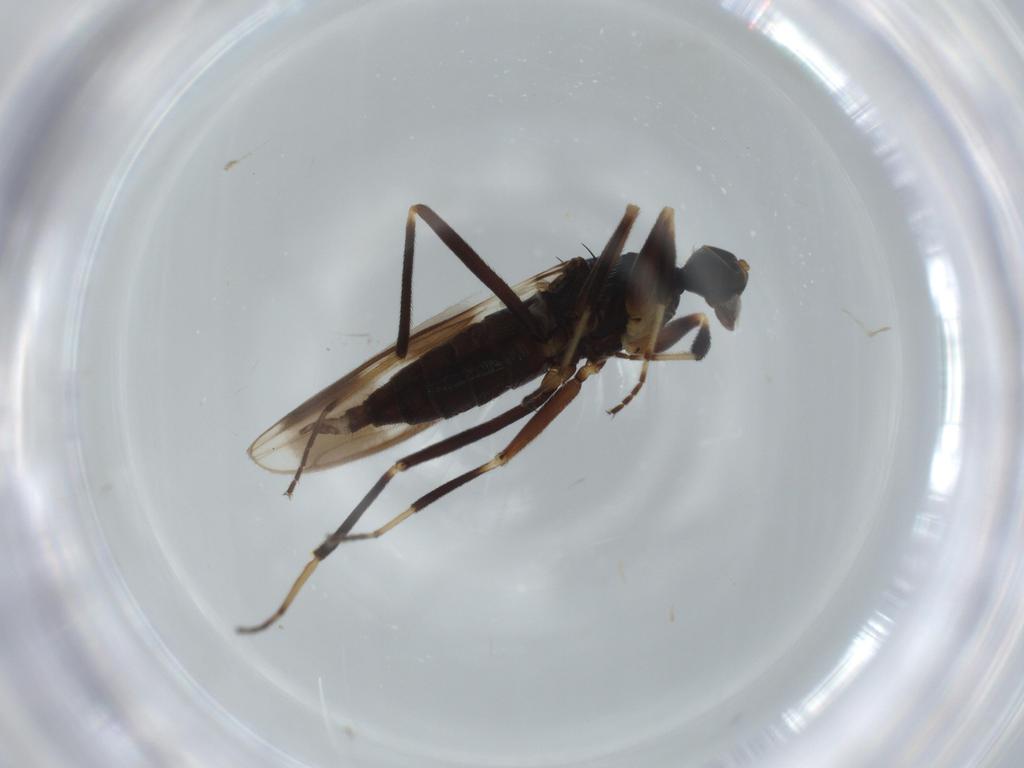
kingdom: Animalia
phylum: Arthropoda
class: Insecta
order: Diptera
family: Hybotidae
